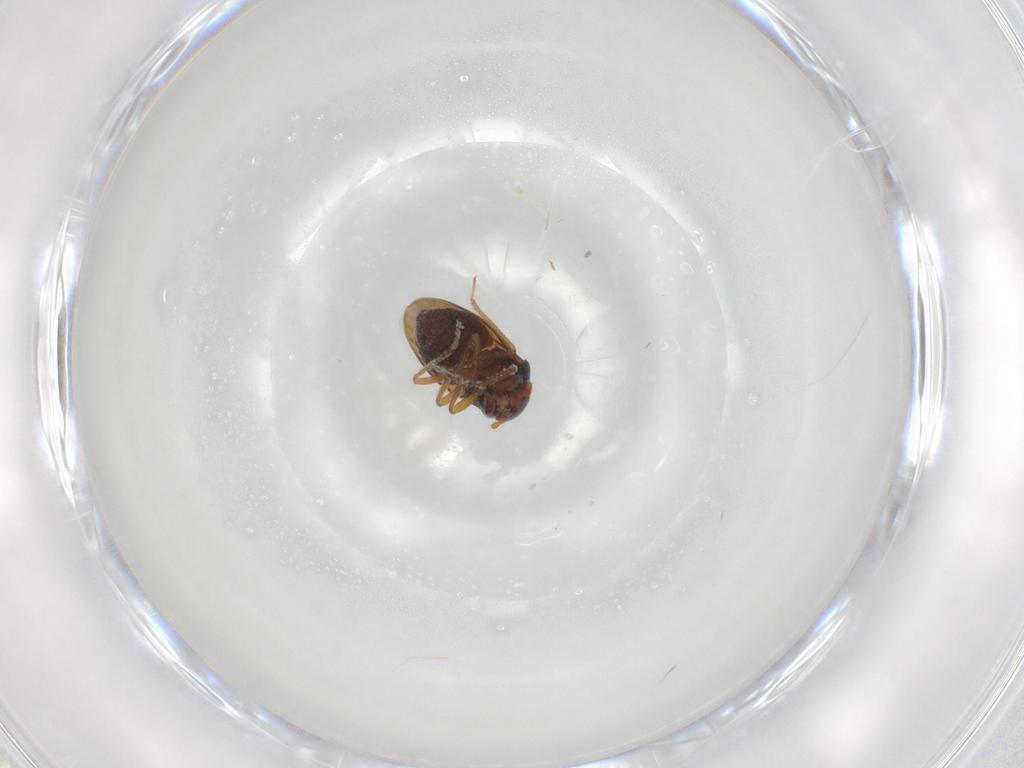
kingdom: Animalia
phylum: Arthropoda
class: Insecta
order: Hemiptera
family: Schizopteridae
